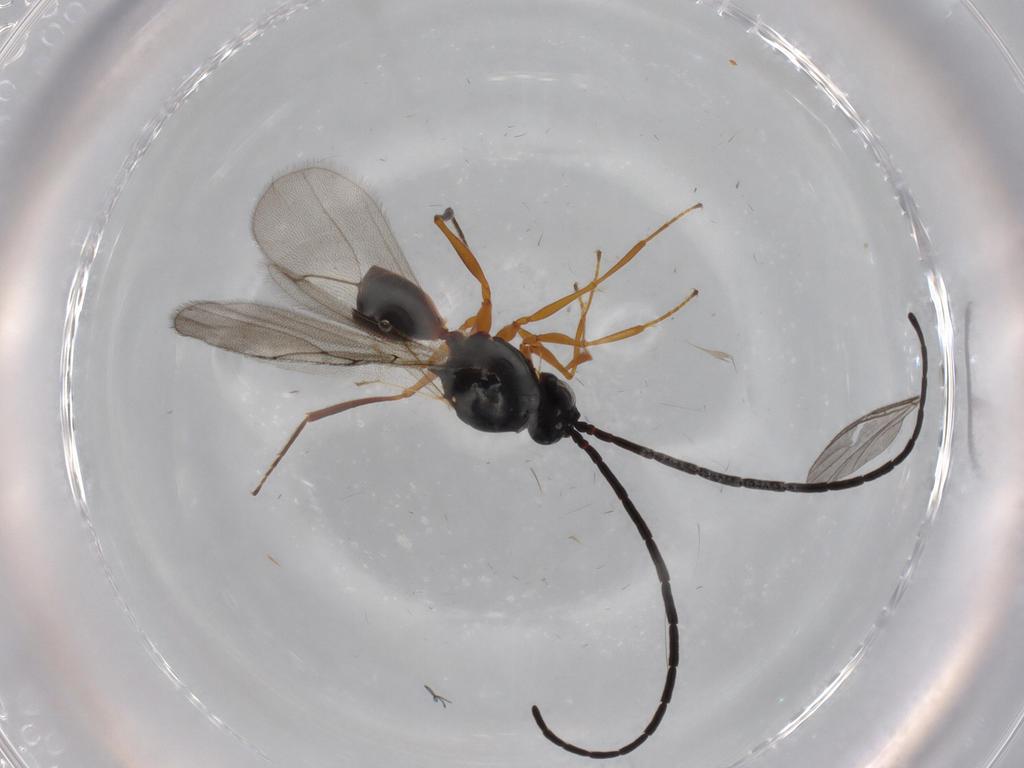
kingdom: Animalia
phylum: Arthropoda
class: Insecta
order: Hymenoptera
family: Figitidae
